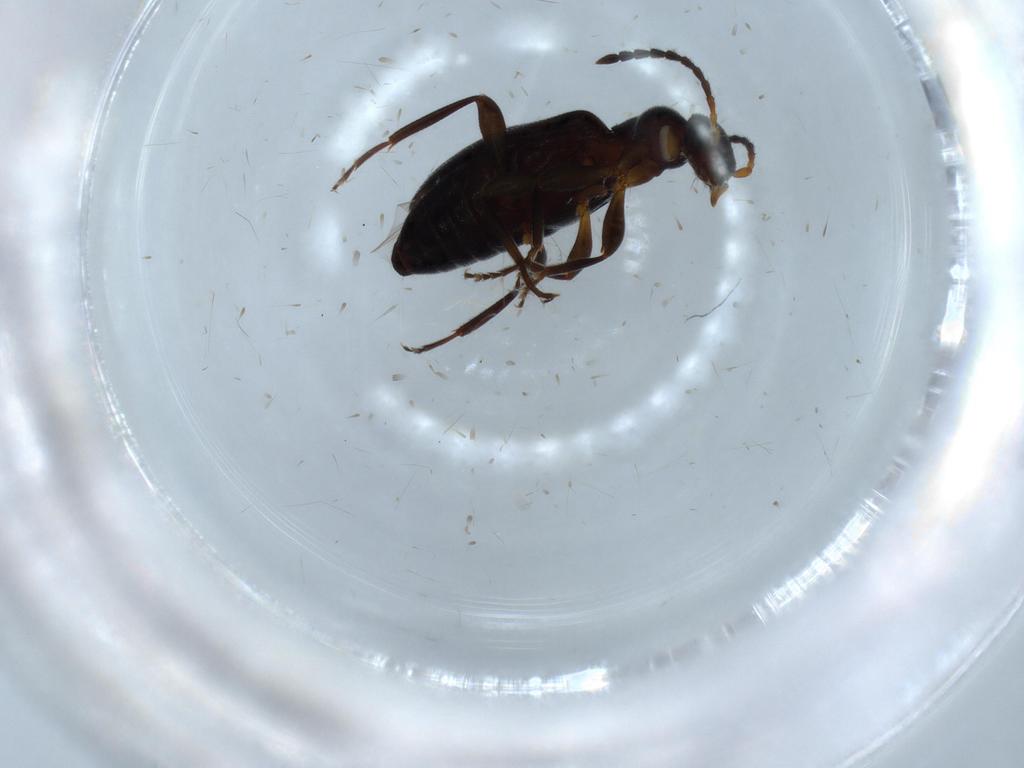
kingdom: Animalia
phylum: Arthropoda
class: Insecta
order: Coleoptera
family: Anthicidae
